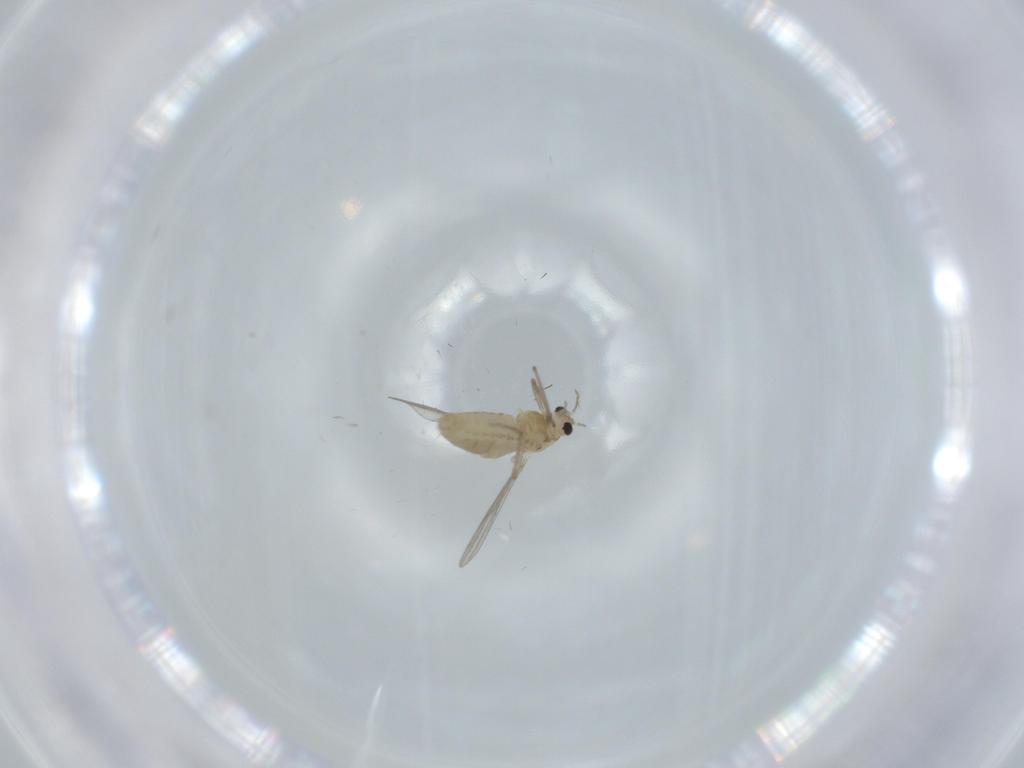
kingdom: Animalia
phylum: Arthropoda
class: Insecta
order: Diptera
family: Chironomidae
